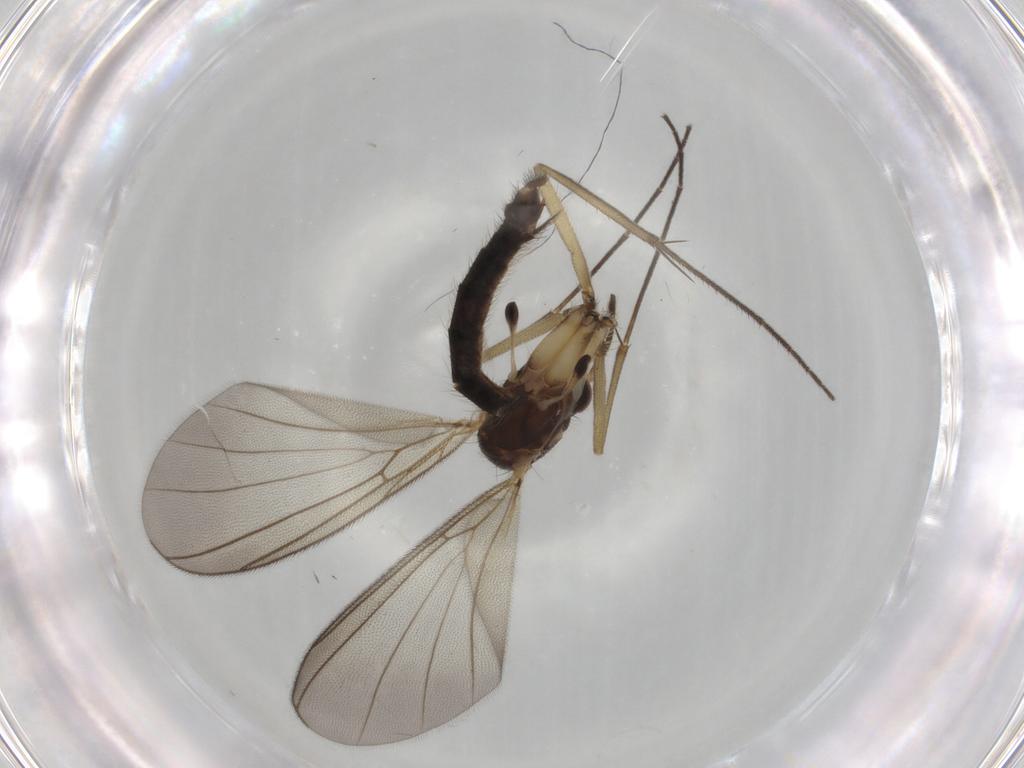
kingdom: Animalia
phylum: Arthropoda
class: Insecta
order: Diptera
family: Mycetophilidae
